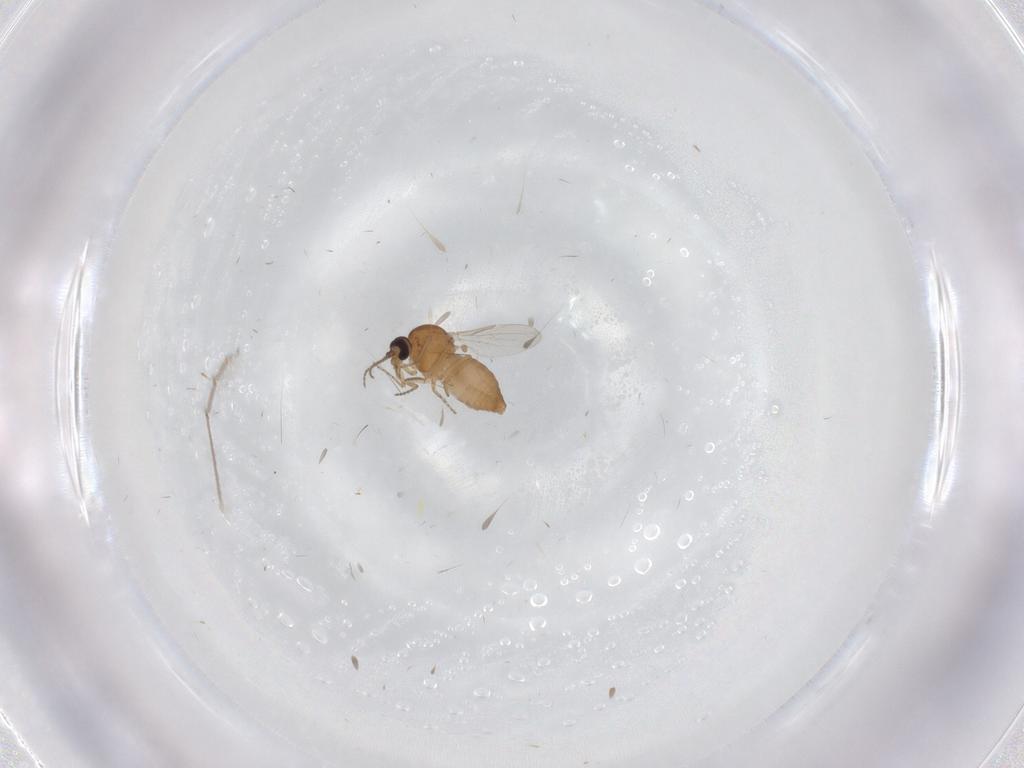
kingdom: Animalia
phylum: Arthropoda
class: Insecta
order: Diptera
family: Ceratopogonidae
